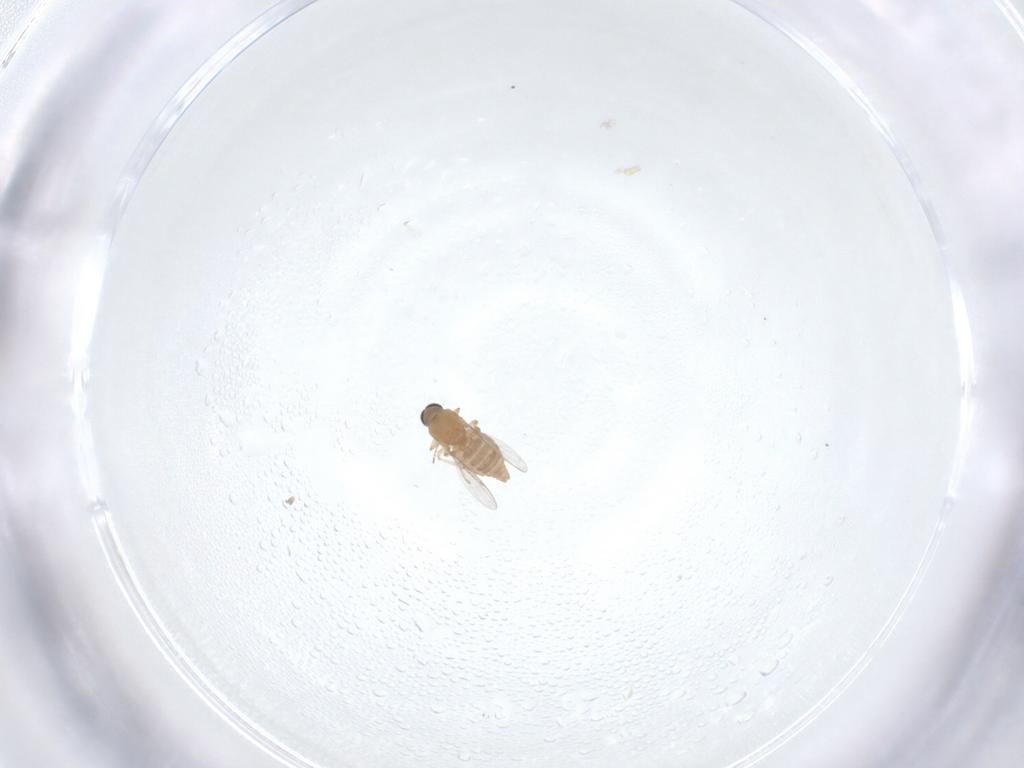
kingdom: Animalia
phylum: Arthropoda
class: Insecta
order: Diptera
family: Ceratopogonidae
